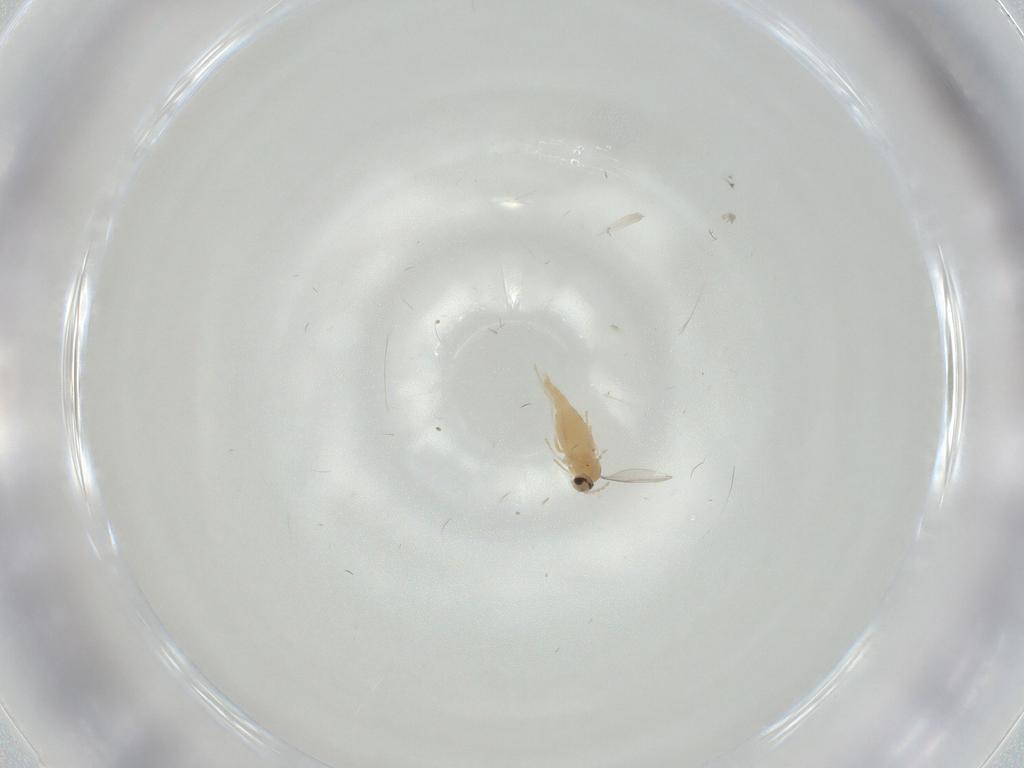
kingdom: Animalia
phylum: Arthropoda
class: Insecta
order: Diptera
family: Cecidomyiidae
